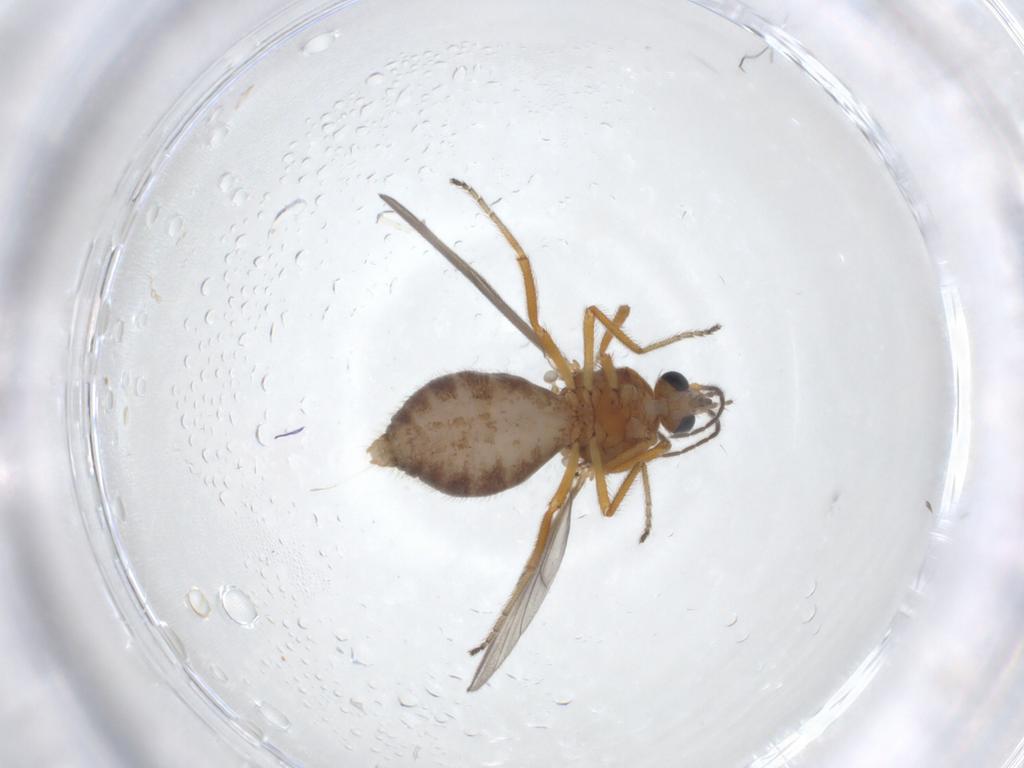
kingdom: Animalia
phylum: Arthropoda
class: Insecta
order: Diptera
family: Ceratopogonidae
